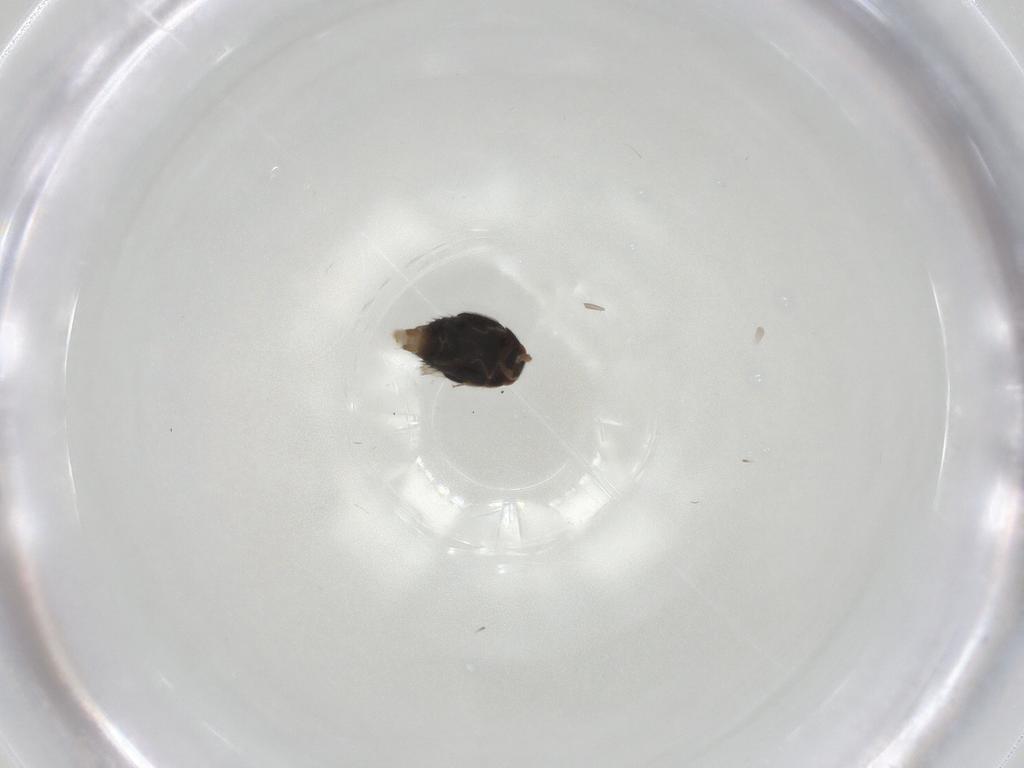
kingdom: Animalia
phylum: Arthropoda
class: Insecta
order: Coleoptera
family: Staphylinidae
